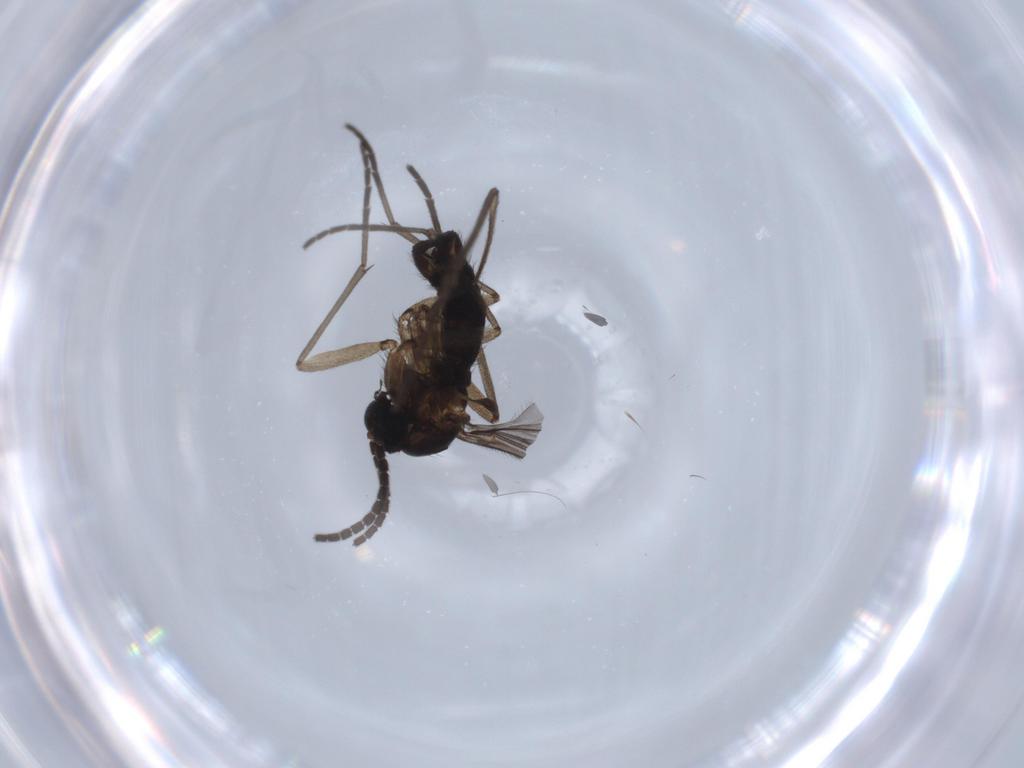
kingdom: Animalia
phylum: Arthropoda
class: Insecta
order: Diptera
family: Sciaridae
